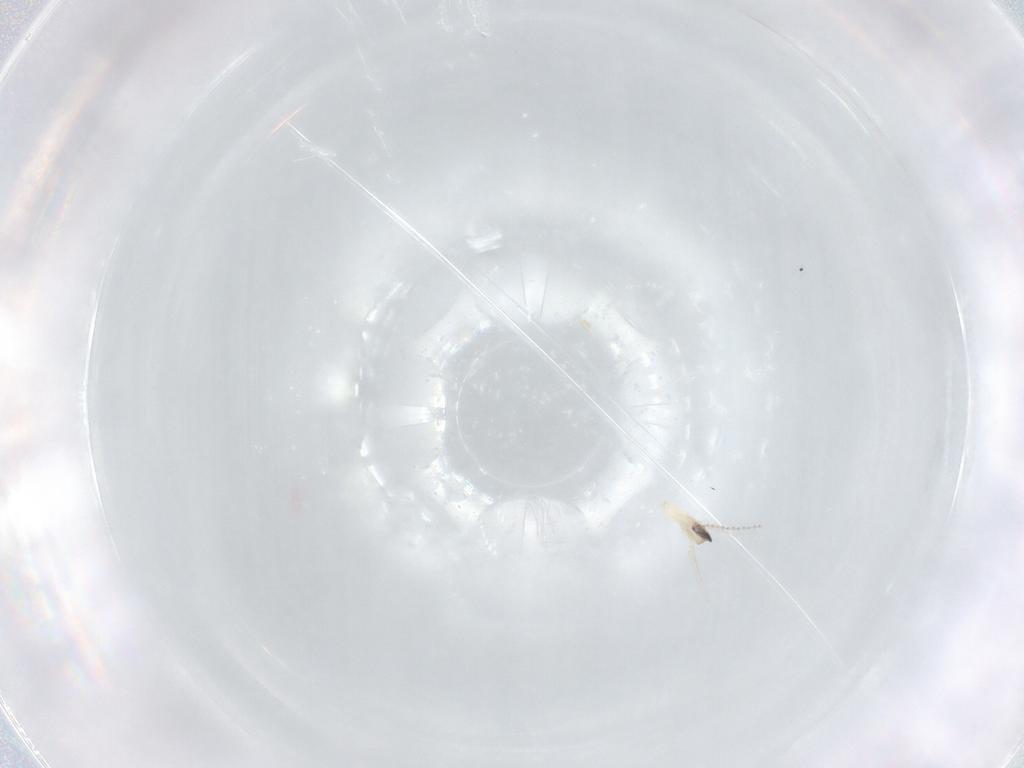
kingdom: Animalia
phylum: Arthropoda
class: Insecta
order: Diptera
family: Cecidomyiidae
